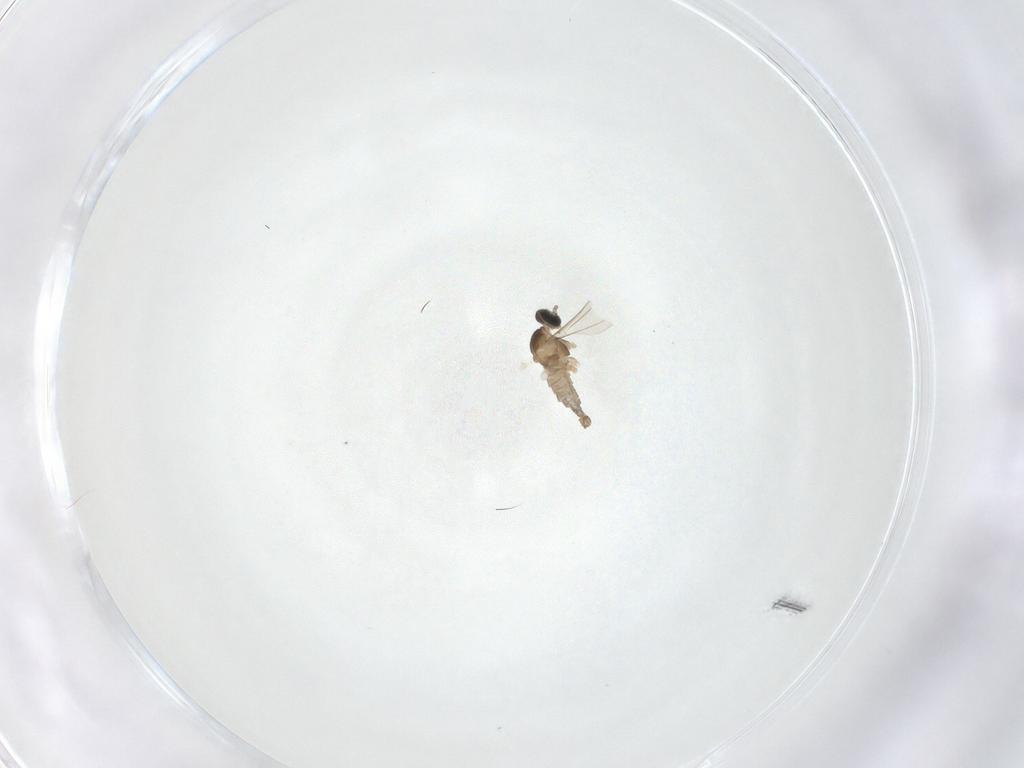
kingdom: Animalia
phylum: Arthropoda
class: Insecta
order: Diptera
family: Cecidomyiidae
